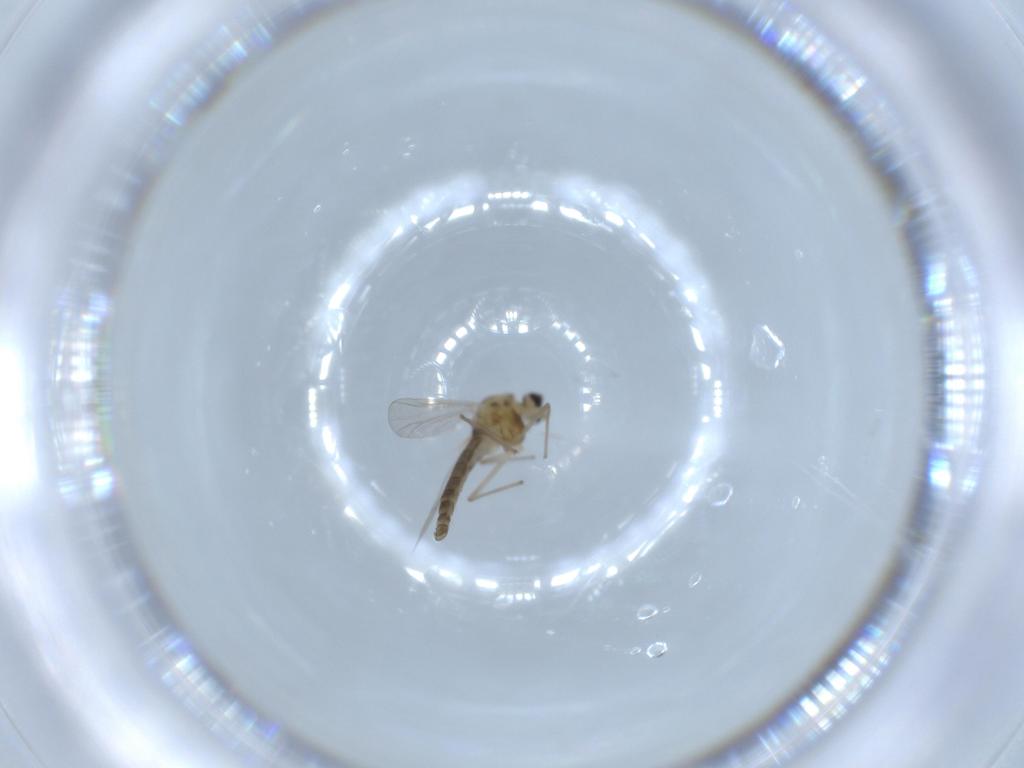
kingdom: Animalia
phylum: Arthropoda
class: Insecta
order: Diptera
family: Chironomidae
